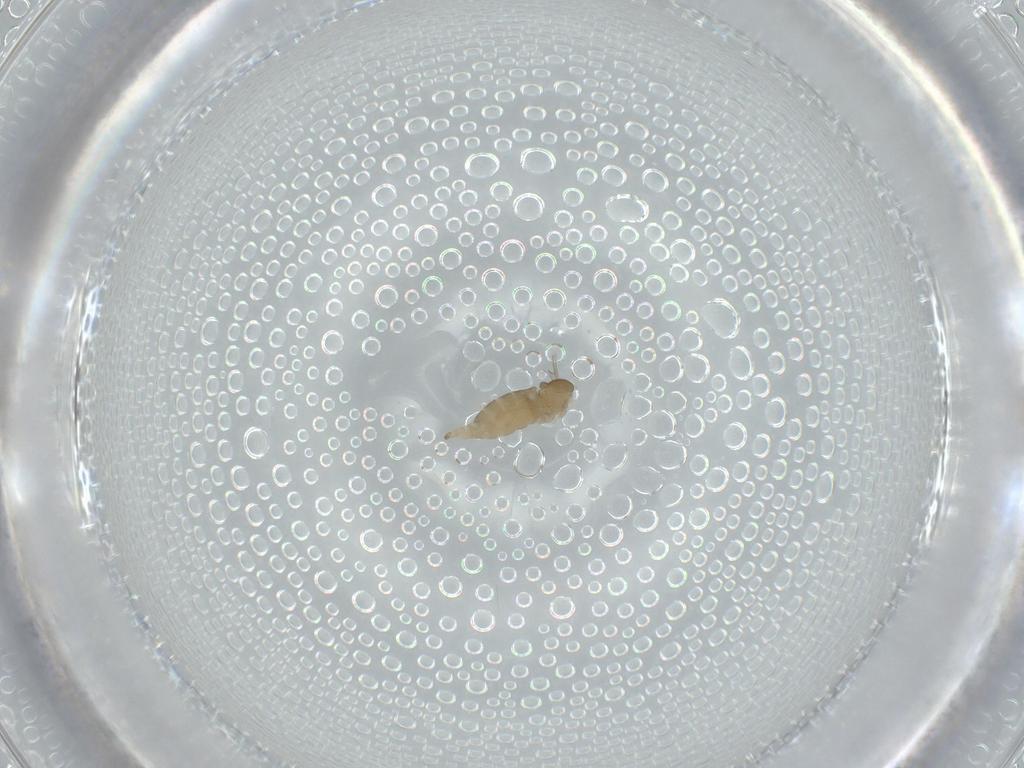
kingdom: Animalia
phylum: Arthropoda
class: Insecta
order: Diptera
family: Cecidomyiidae
